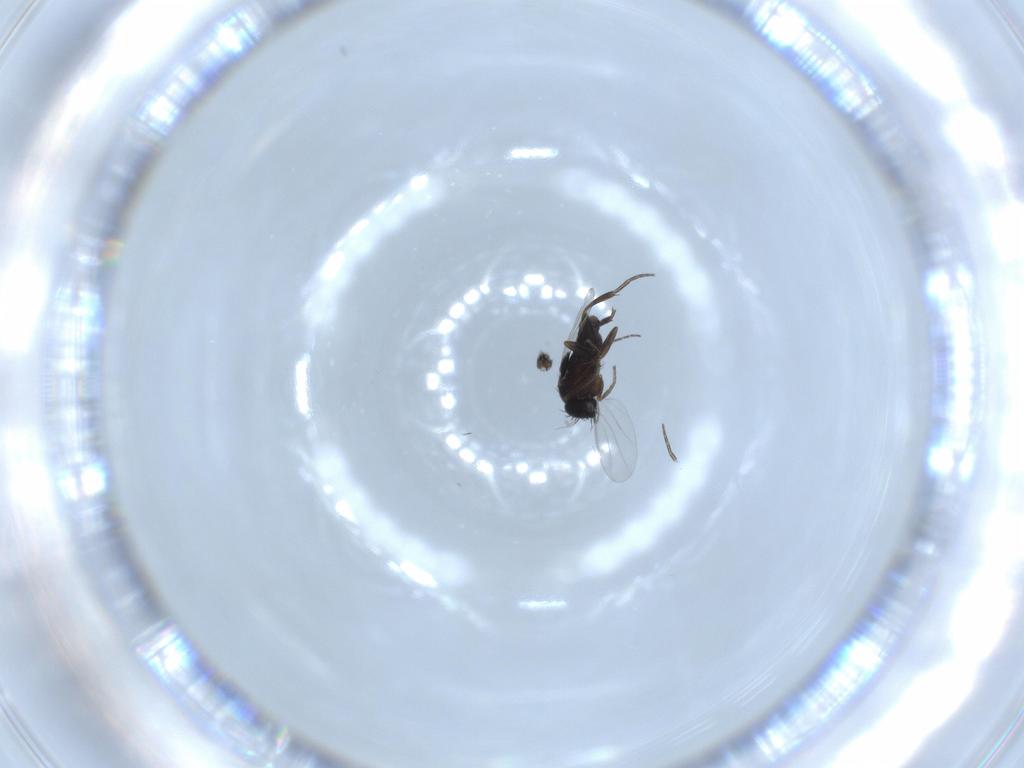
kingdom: Animalia
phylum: Arthropoda
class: Insecta
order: Diptera
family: Phoridae
